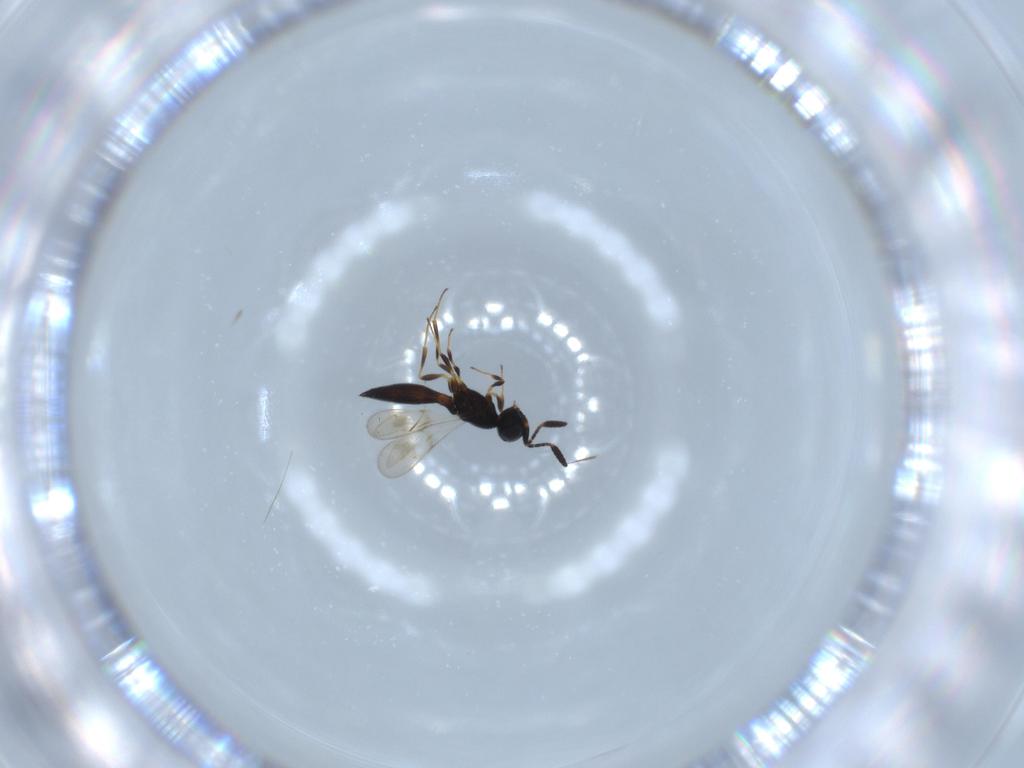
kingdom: Animalia
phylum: Arthropoda
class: Insecta
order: Hymenoptera
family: Platygastridae
